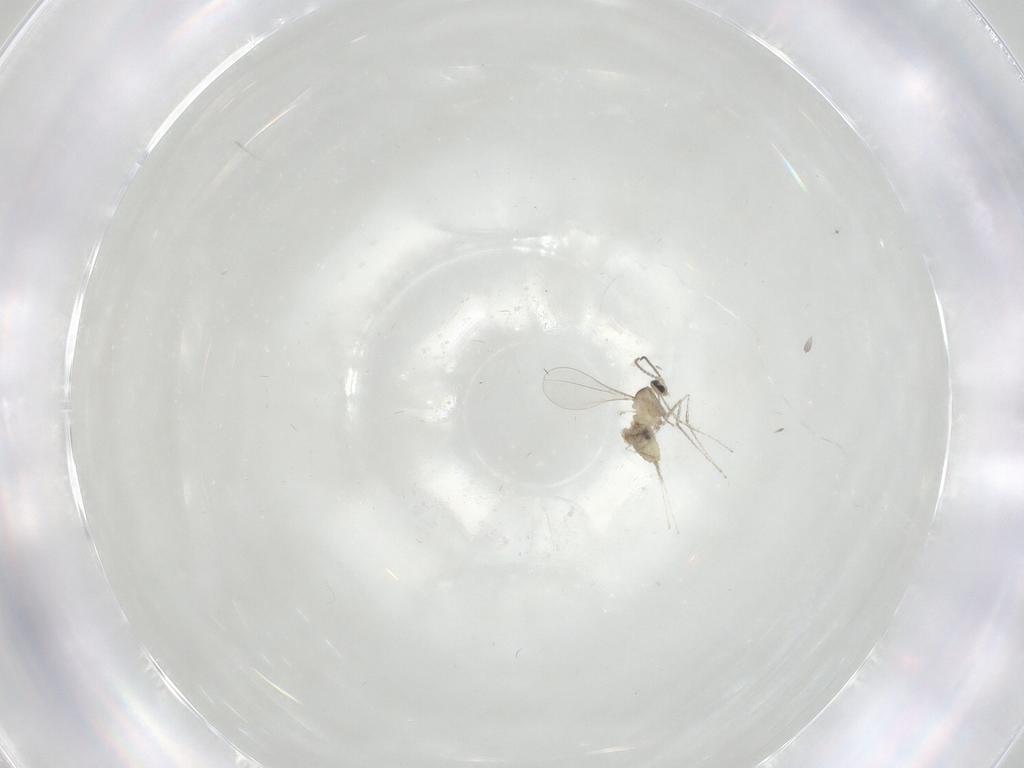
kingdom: Animalia
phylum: Arthropoda
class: Insecta
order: Diptera
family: Cecidomyiidae
